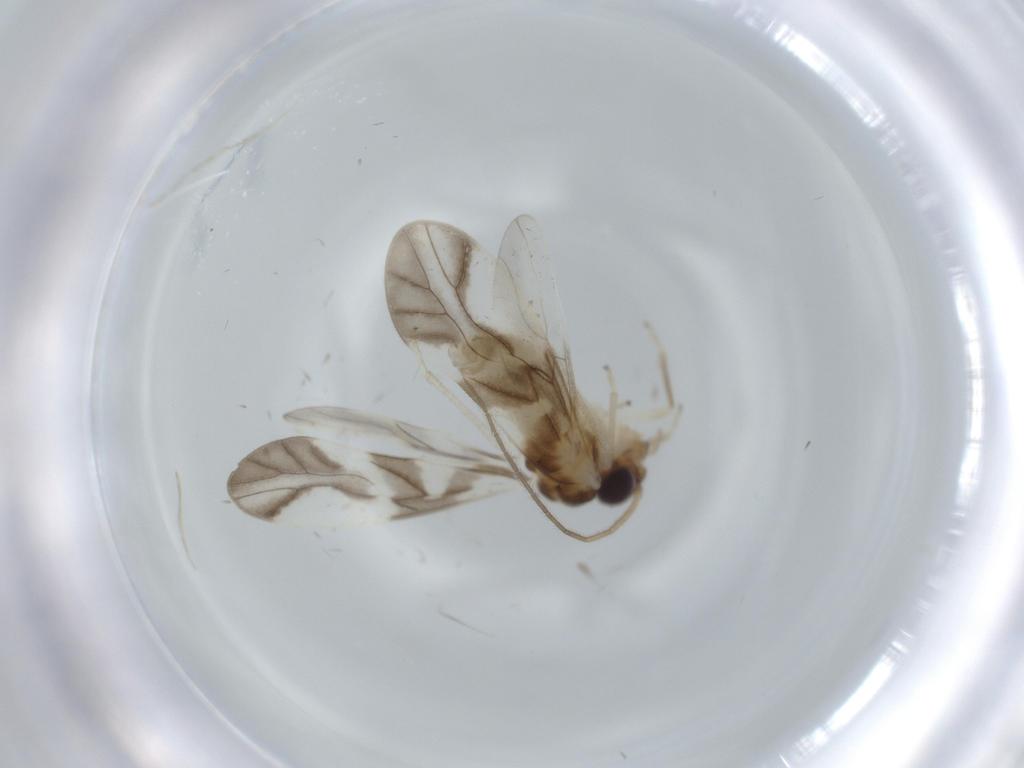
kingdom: Animalia
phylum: Arthropoda
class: Insecta
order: Psocodea
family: Caeciliusidae
